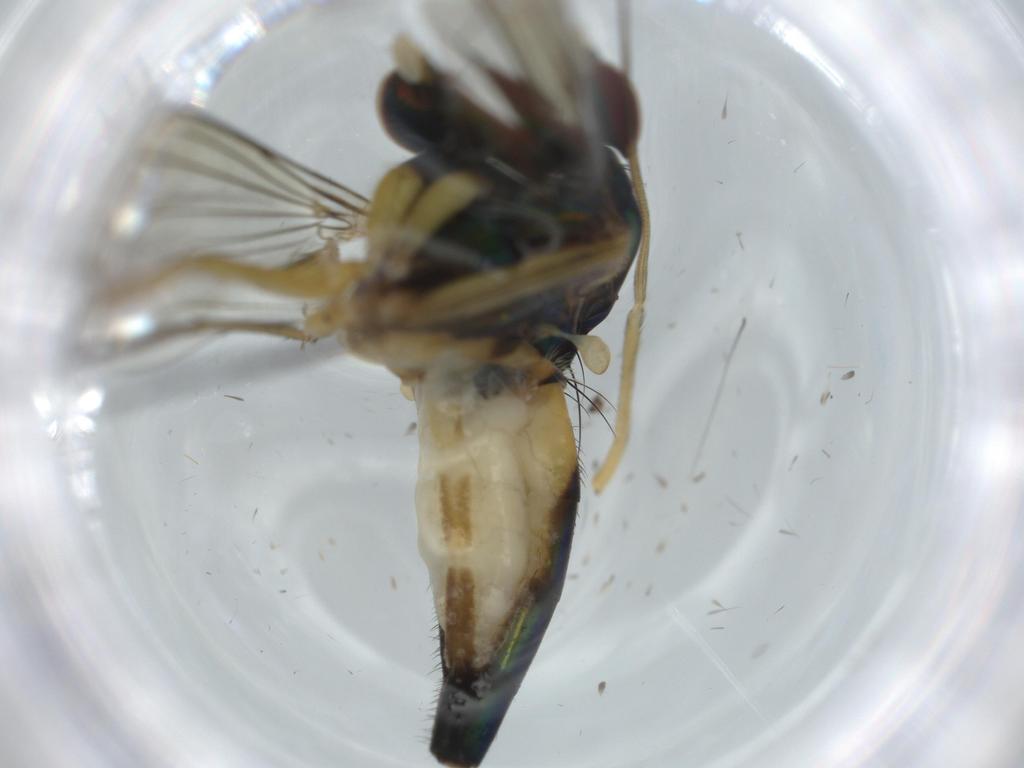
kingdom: Animalia
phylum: Arthropoda
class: Insecta
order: Diptera
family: Dolichopodidae
